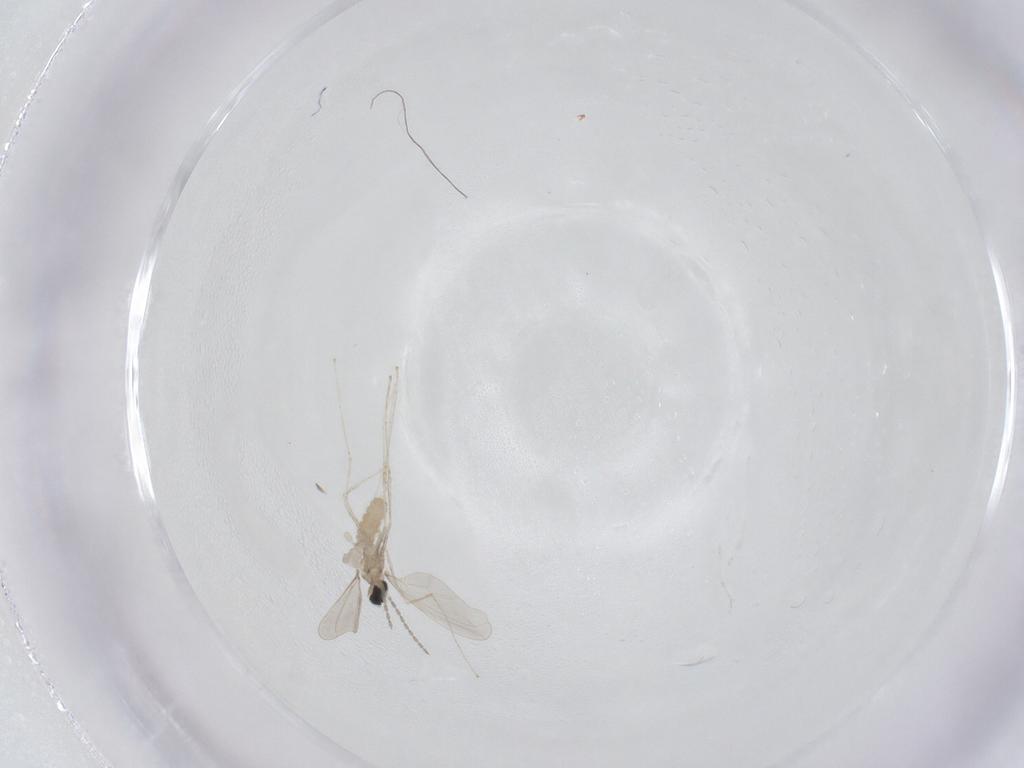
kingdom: Animalia
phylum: Arthropoda
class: Insecta
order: Diptera
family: Cecidomyiidae
